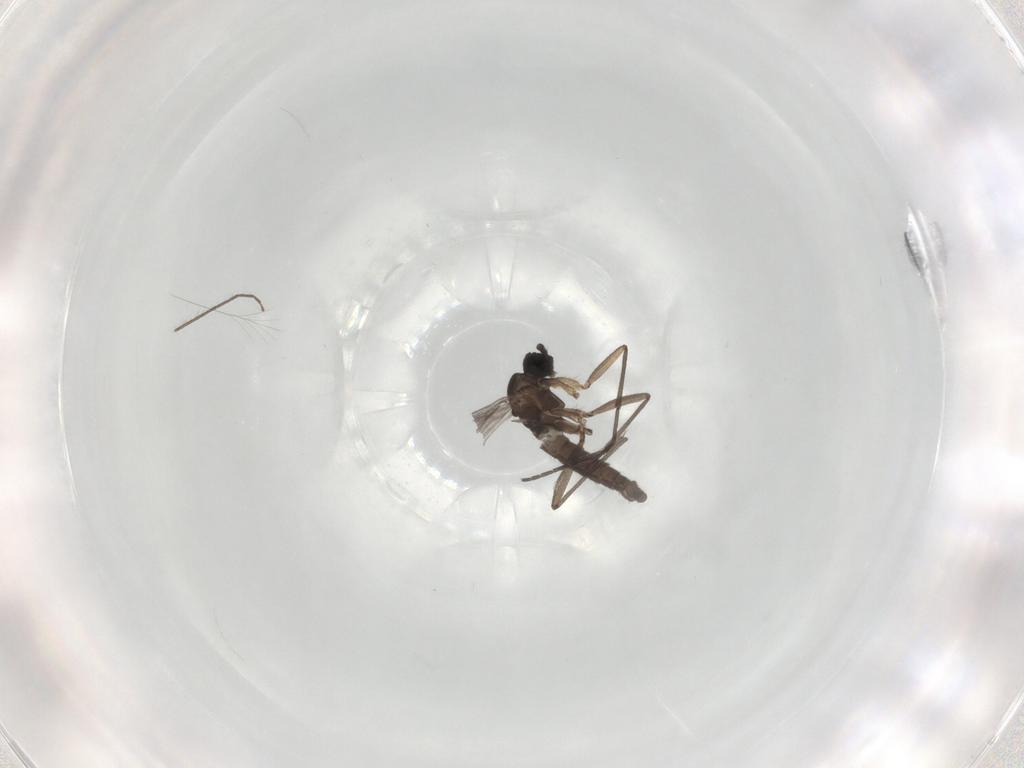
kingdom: Animalia
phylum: Arthropoda
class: Insecta
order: Diptera
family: Sciaridae
